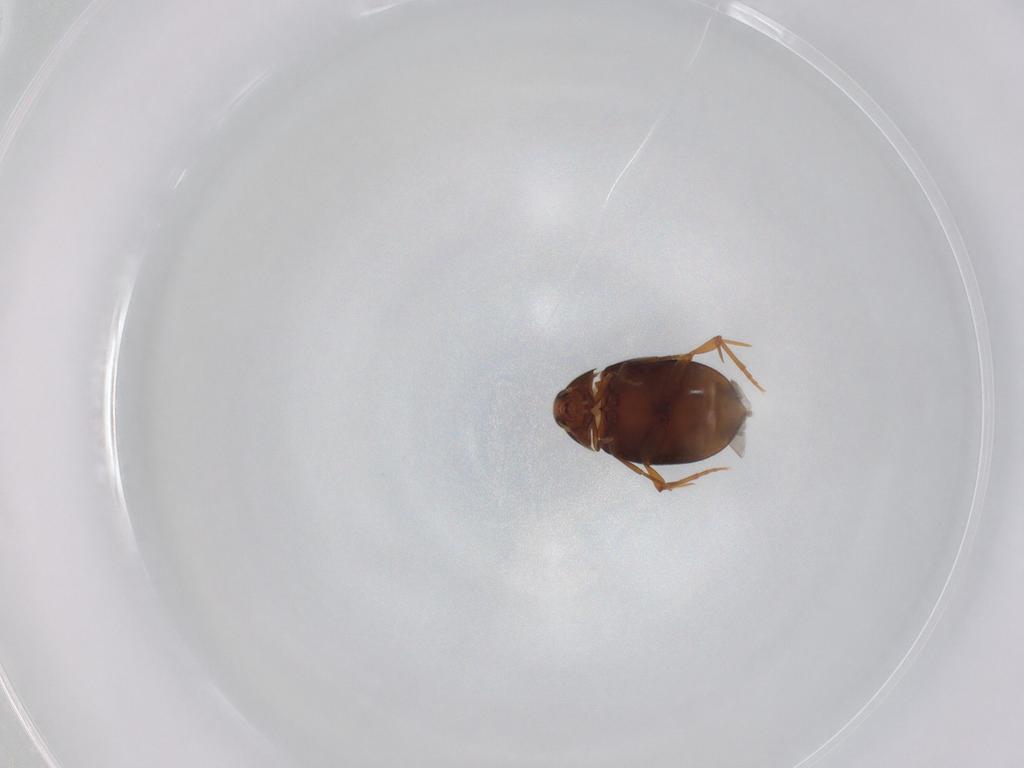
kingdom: Animalia
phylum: Arthropoda
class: Insecta
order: Coleoptera
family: Melandryidae
